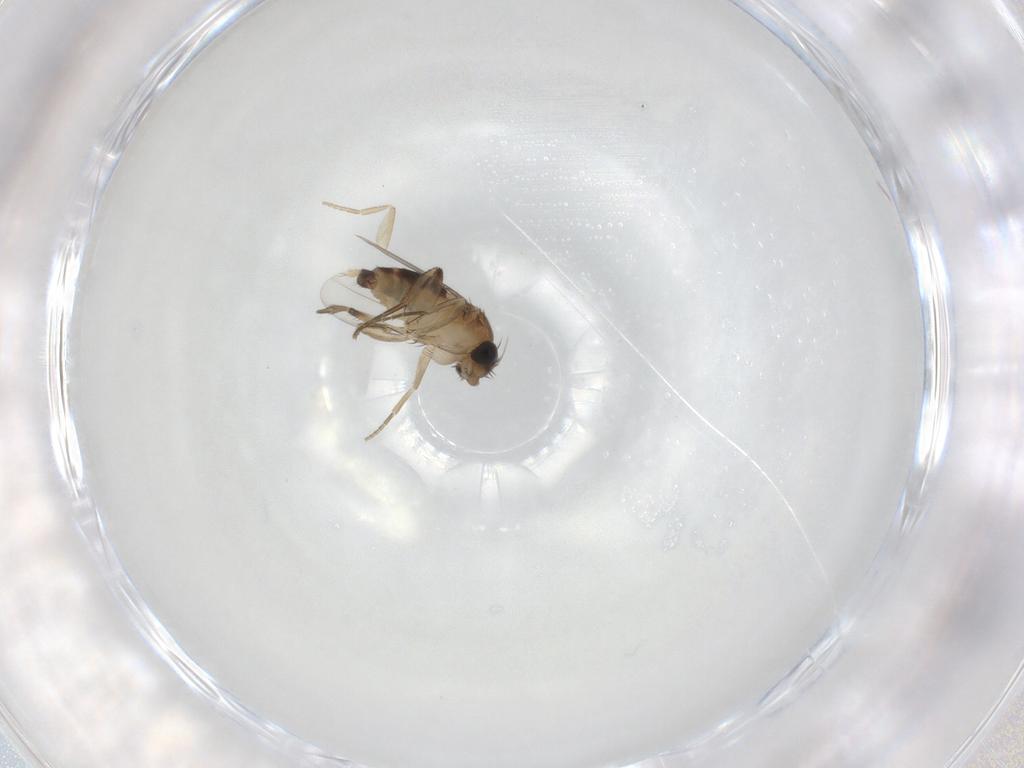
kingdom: Animalia
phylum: Arthropoda
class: Insecta
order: Diptera
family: Phoridae
